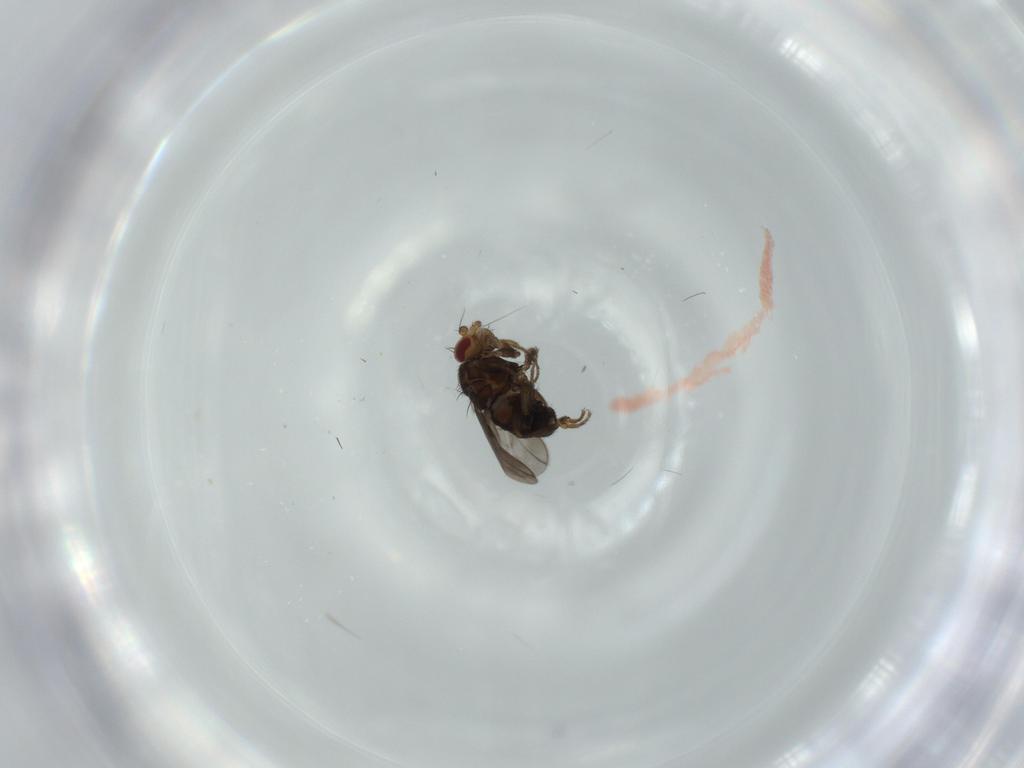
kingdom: Animalia
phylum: Arthropoda
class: Insecta
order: Diptera
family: Sphaeroceridae
